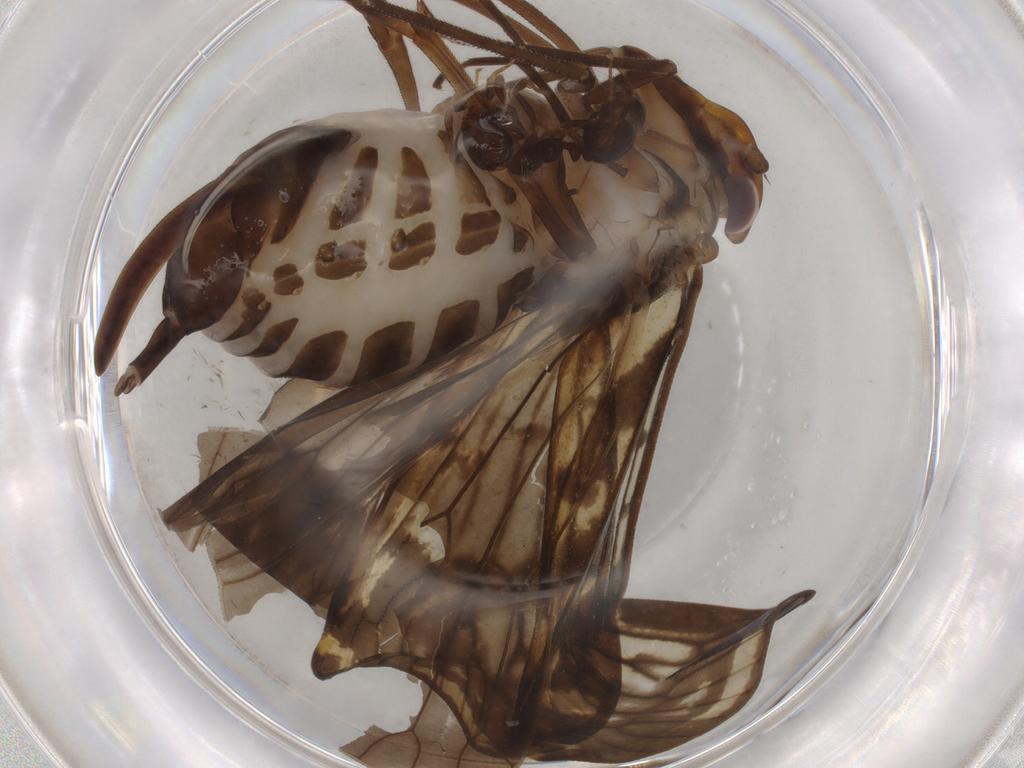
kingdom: Animalia
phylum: Arthropoda
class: Insecta
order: Hemiptera
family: Cixiidae
